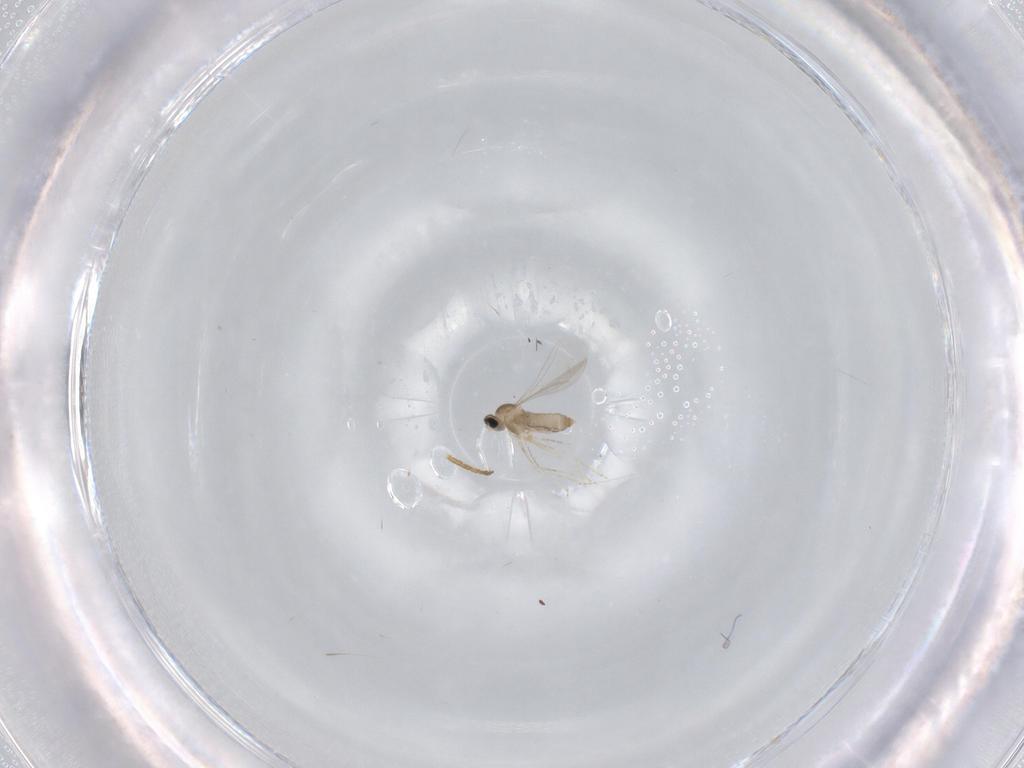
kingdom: Animalia
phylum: Arthropoda
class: Insecta
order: Diptera
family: Cecidomyiidae
